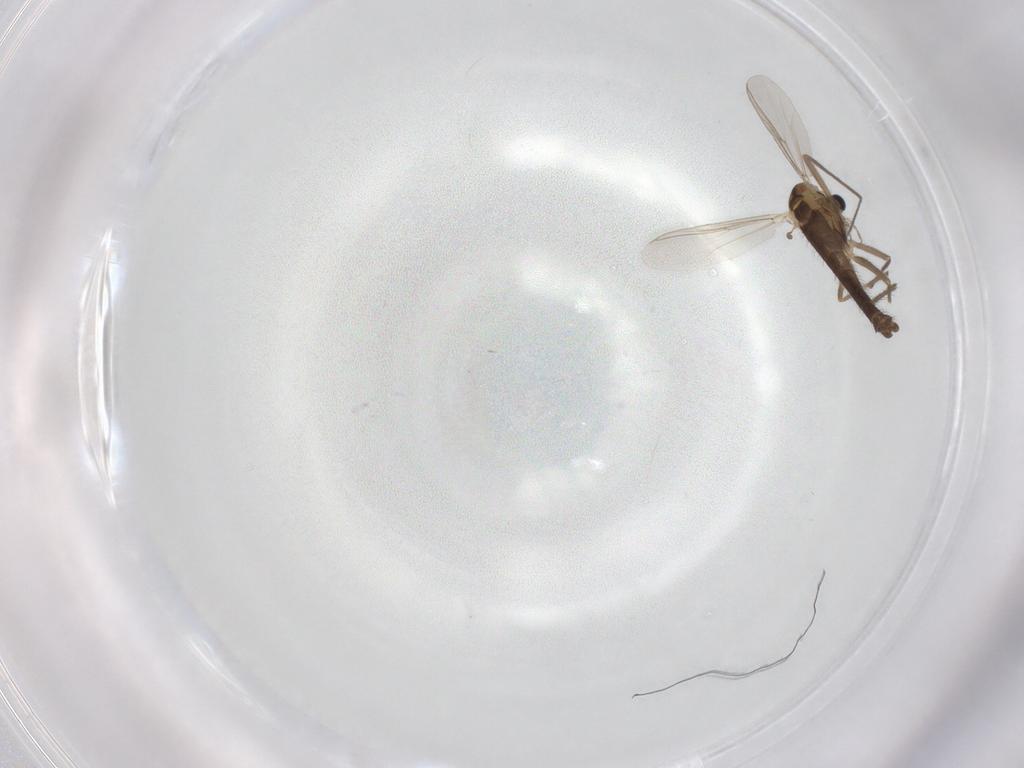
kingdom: Animalia
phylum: Arthropoda
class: Insecta
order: Diptera
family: Chironomidae
